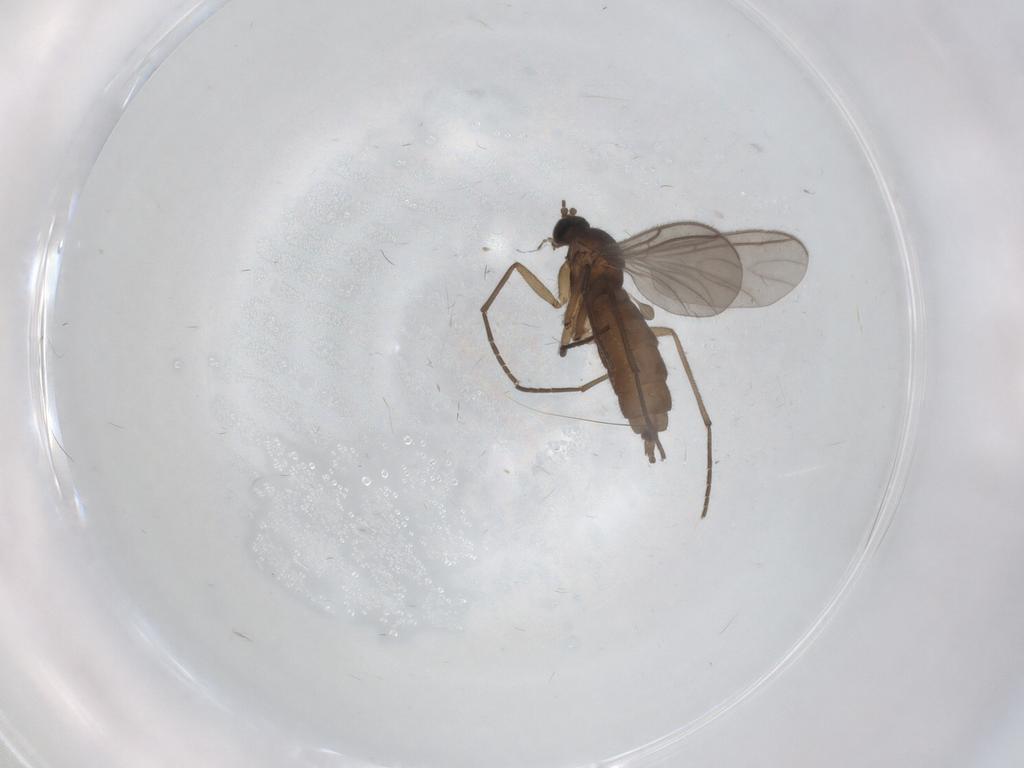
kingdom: Animalia
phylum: Arthropoda
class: Insecta
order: Diptera
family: Sciaridae
